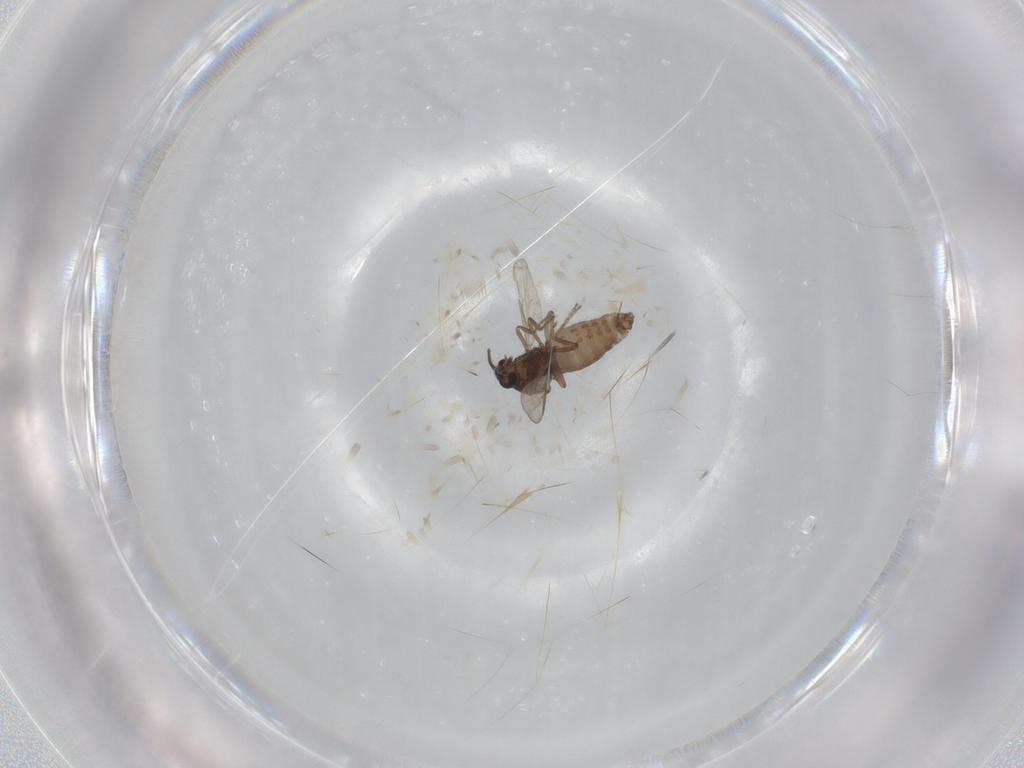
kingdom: Animalia
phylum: Arthropoda
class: Insecta
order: Diptera
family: Ceratopogonidae
